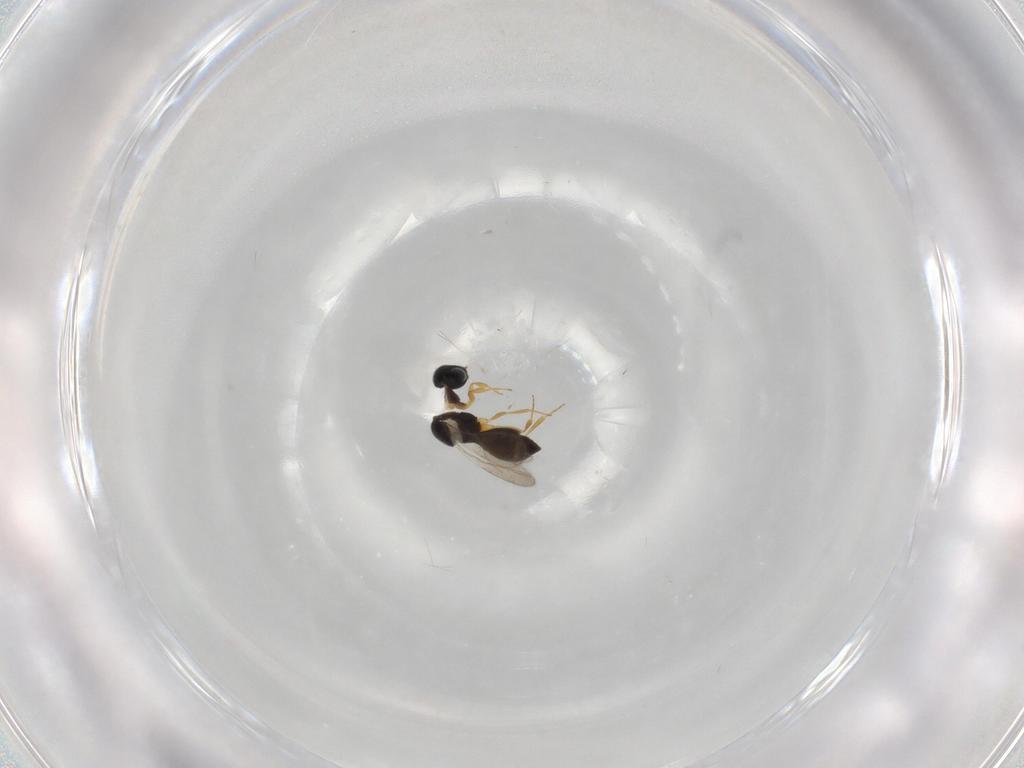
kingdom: Animalia
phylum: Arthropoda
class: Insecta
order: Hymenoptera
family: Scelionidae
